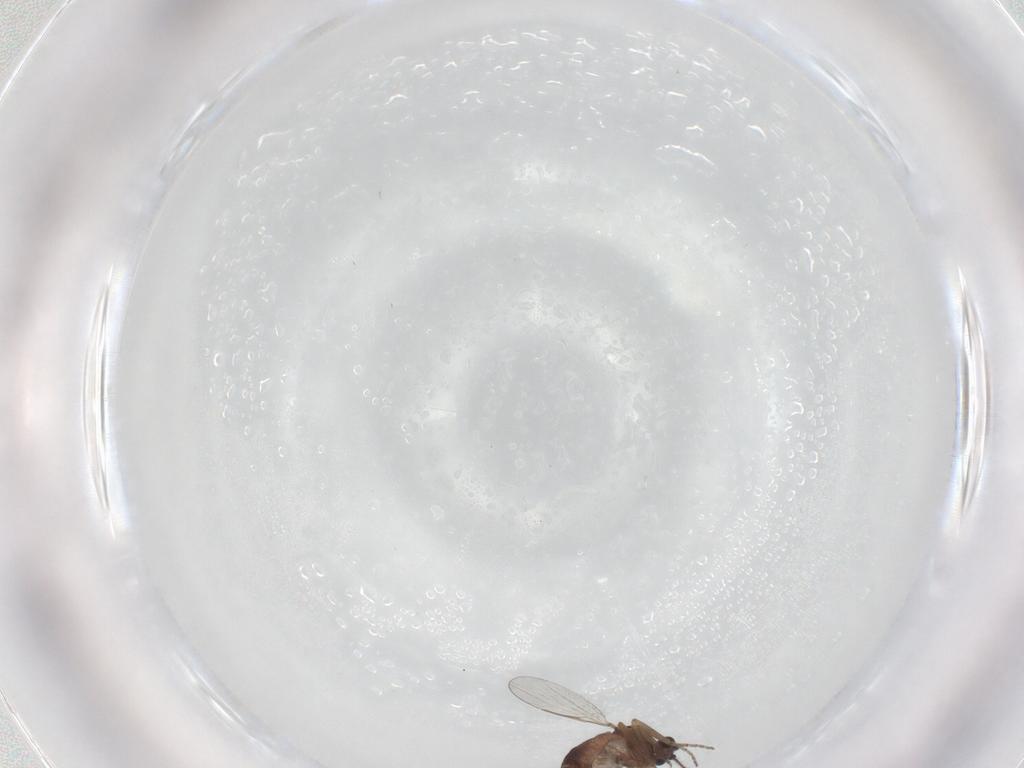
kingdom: Animalia
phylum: Arthropoda
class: Insecta
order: Diptera
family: Ceratopogonidae
